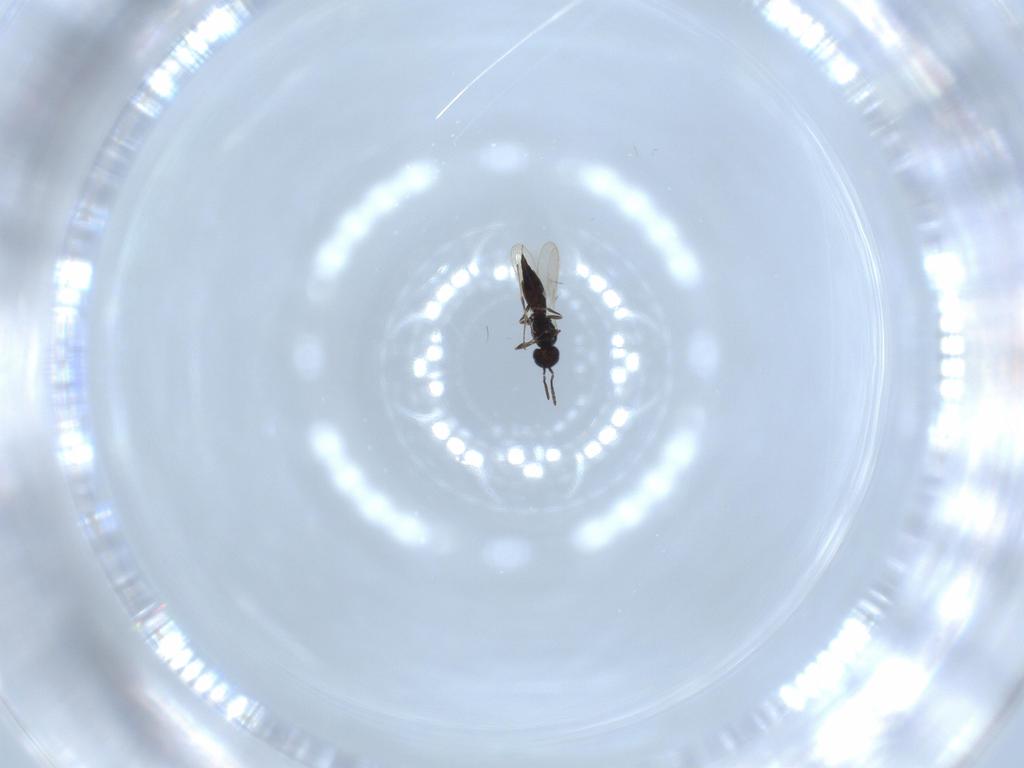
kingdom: Animalia
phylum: Arthropoda
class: Insecta
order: Hymenoptera
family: Scelionidae
